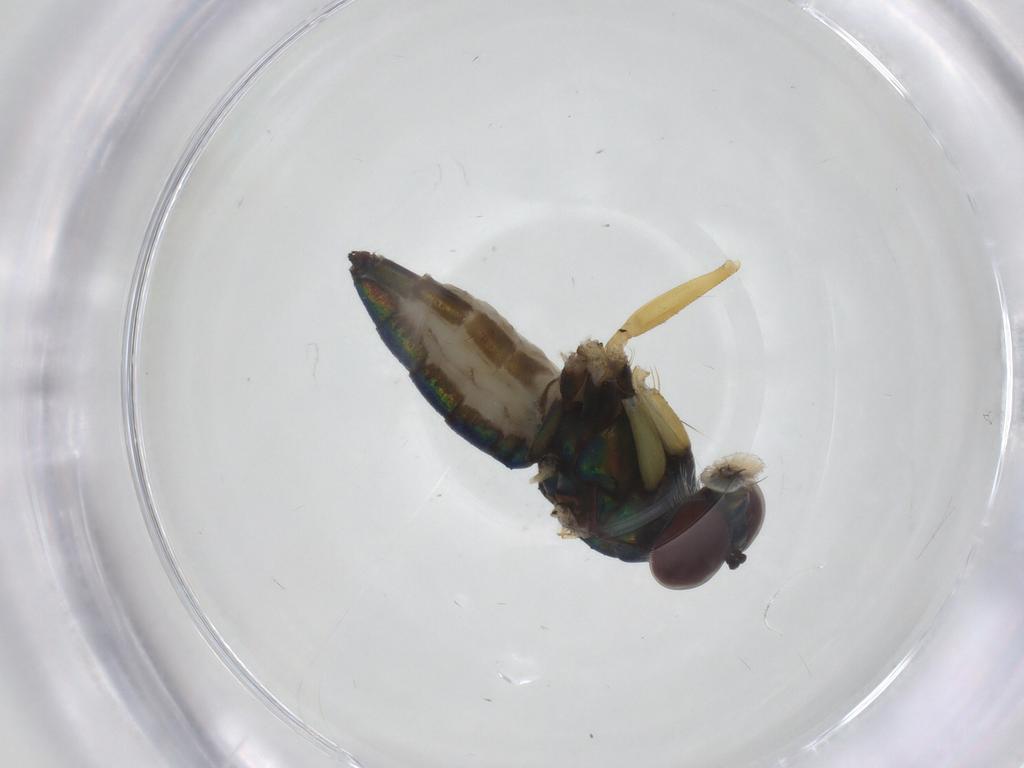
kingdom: Animalia
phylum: Arthropoda
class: Insecta
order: Diptera
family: Dolichopodidae
